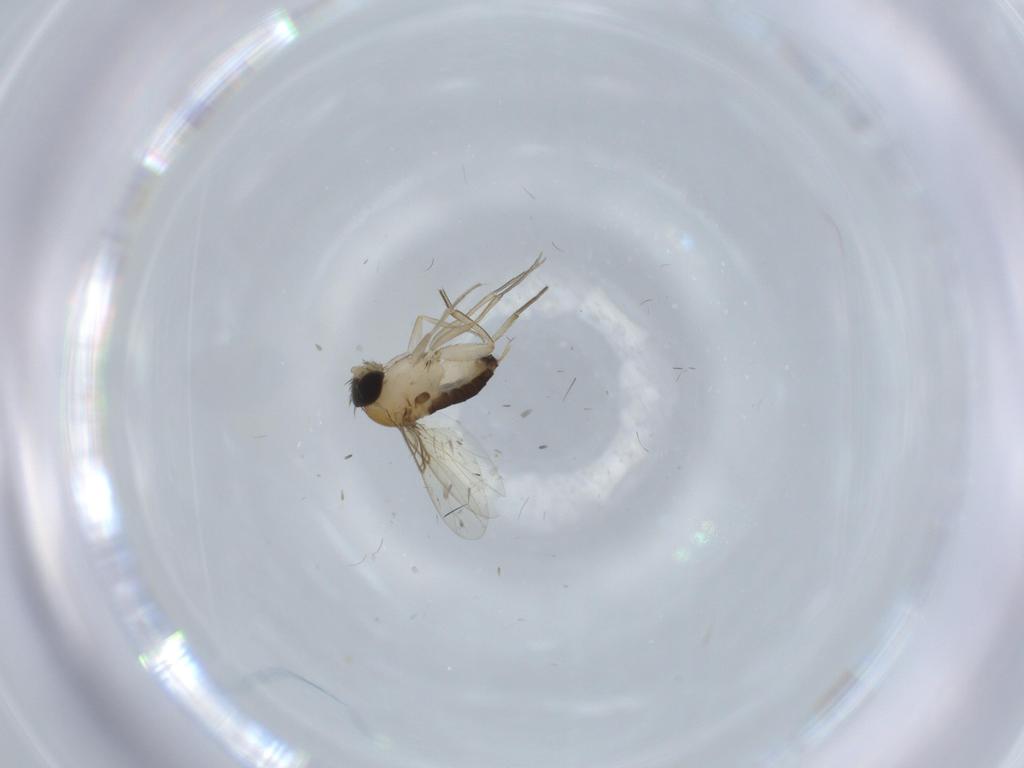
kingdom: Animalia
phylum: Arthropoda
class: Insecta
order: Diptera
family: Phoridae
